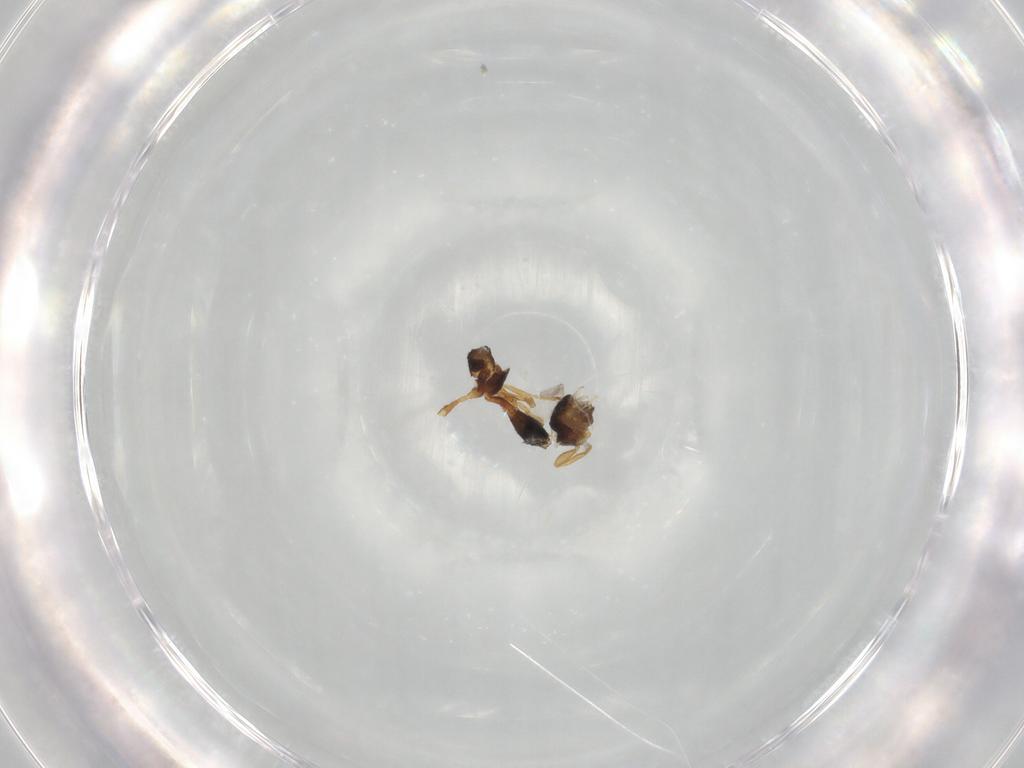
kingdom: Animalia
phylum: Arthropoda
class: Insecta
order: Hymenoptera
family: Braconidae
